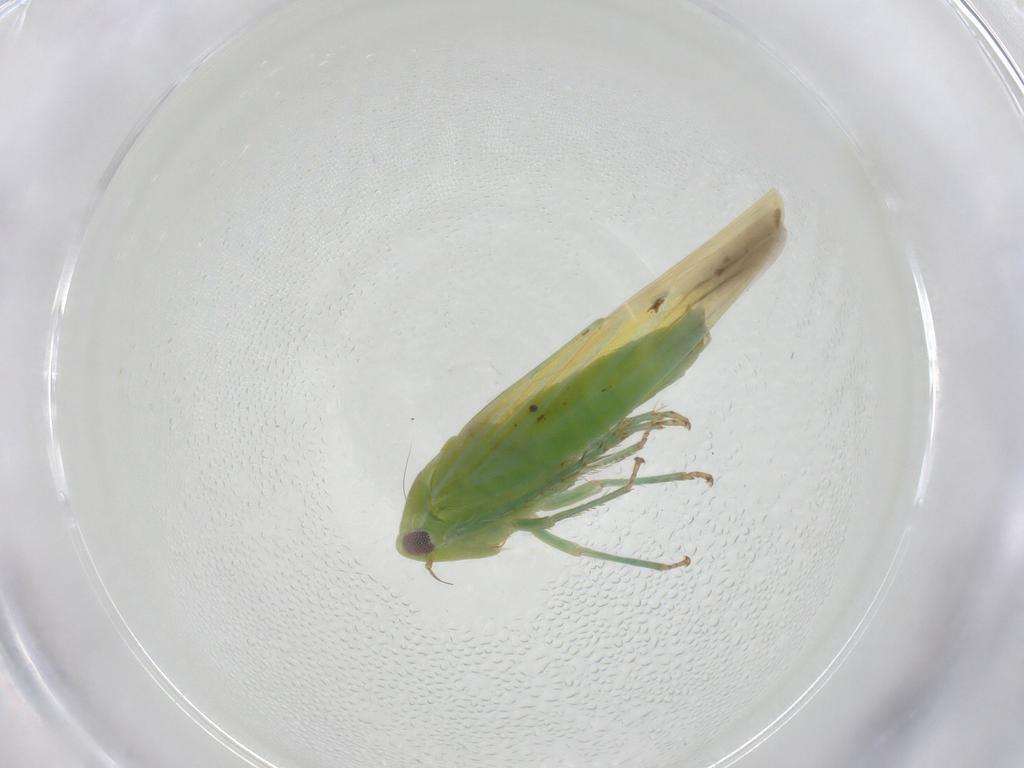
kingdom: Animalia
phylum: Arthropoda
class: Insecta
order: Hemiptera
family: Cicadellidae
